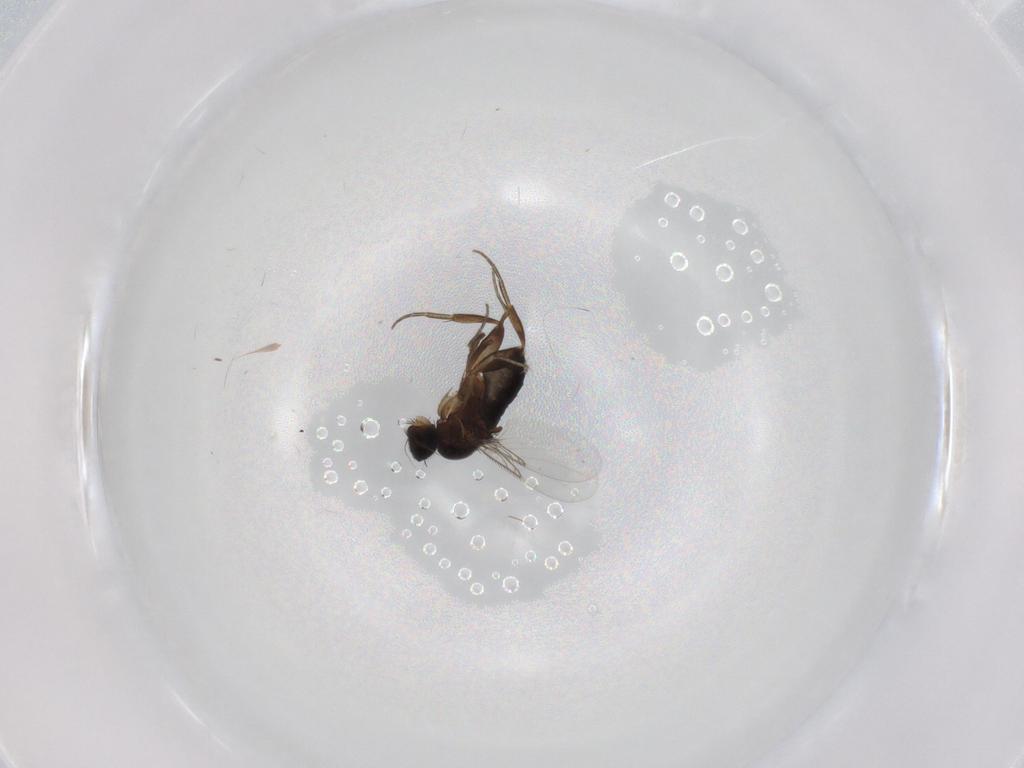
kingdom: Animalia
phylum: Arthropoda
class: Insecta
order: Diptera
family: Phoridae
